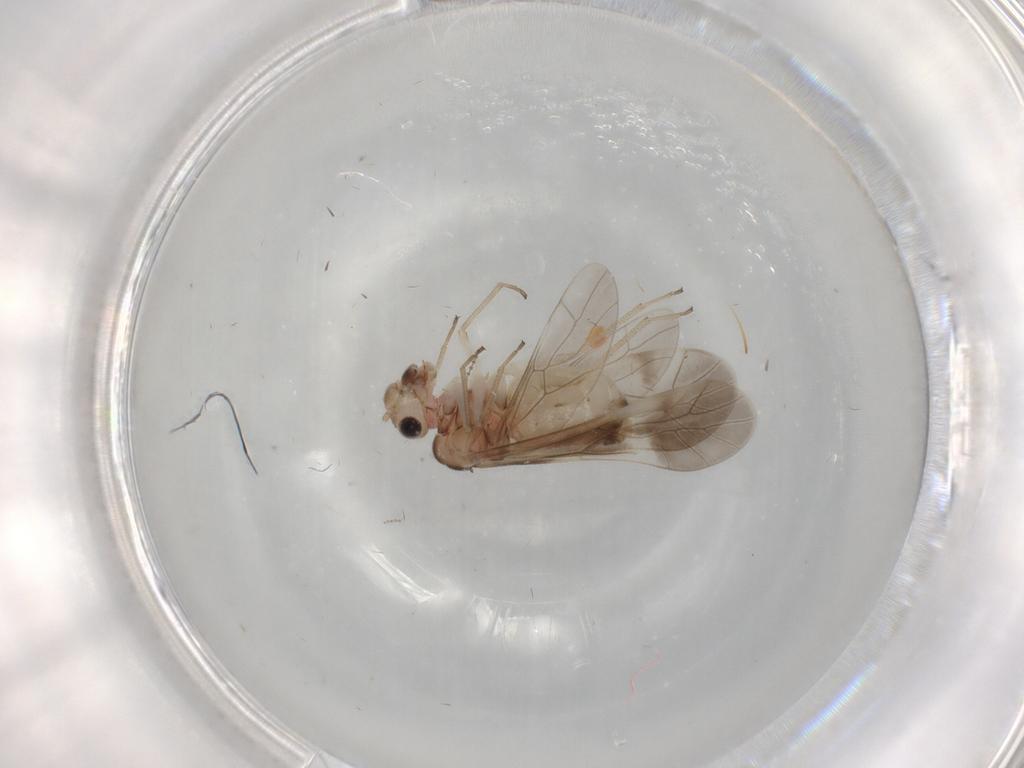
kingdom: Animalia
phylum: Arthropoda
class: Insecta
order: Psocodea
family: Caeciliusidae
